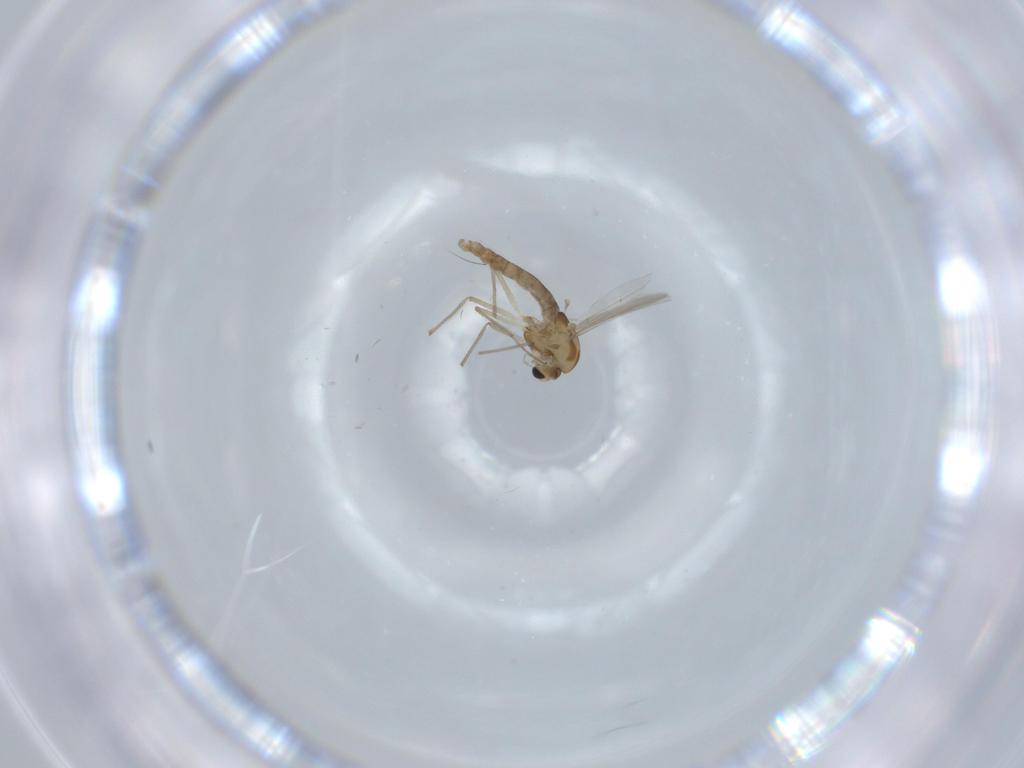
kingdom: Animalia
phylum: Arthropoda
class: Insecta
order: Diptera
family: Chironomidae
